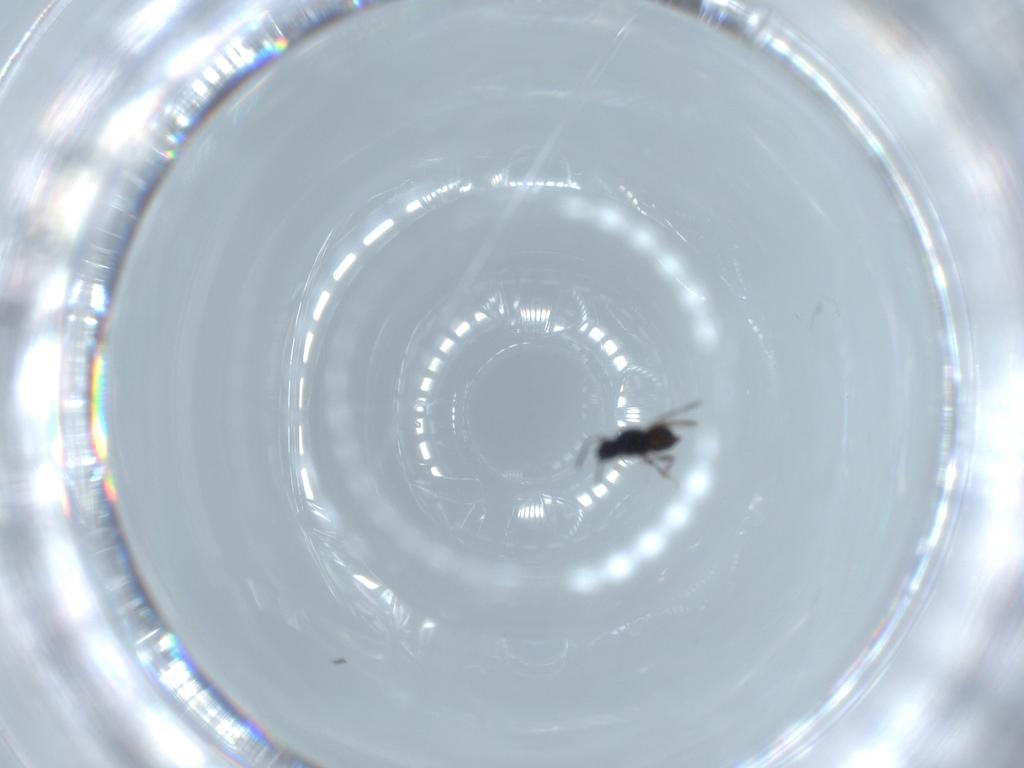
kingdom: Animalia
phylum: Arthropoda
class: Insecta
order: Hymenoptera
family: Ceraphronidae
